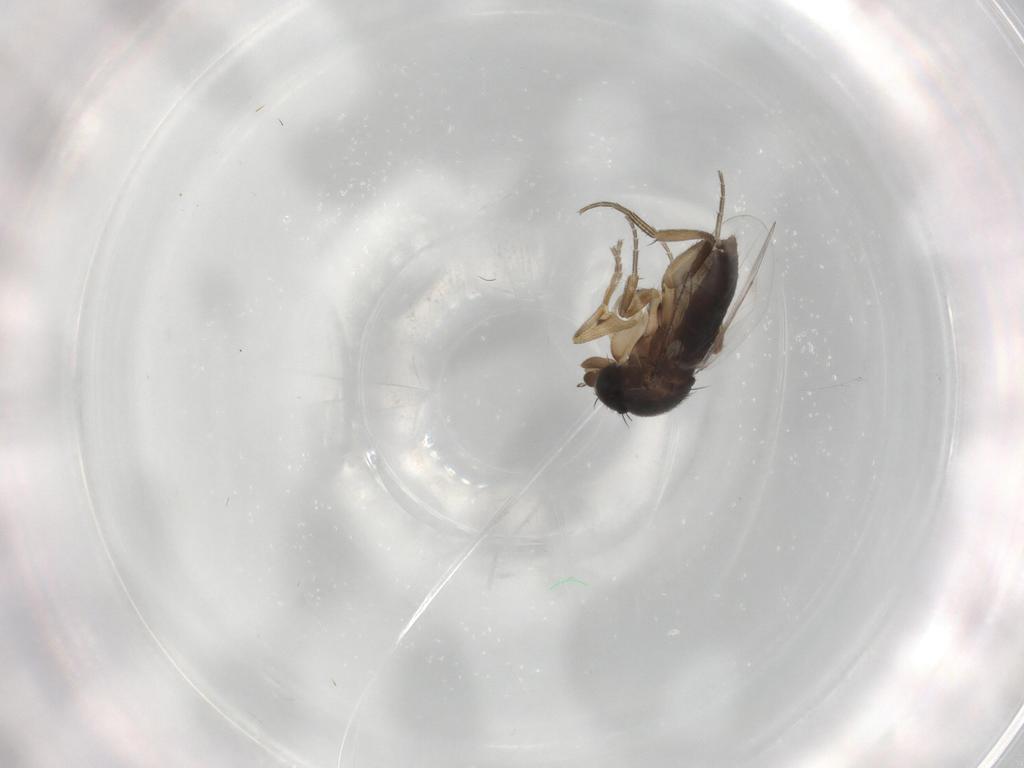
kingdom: Animalia
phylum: Arthropoda
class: Insecta
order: Diptera
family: Phoridae
